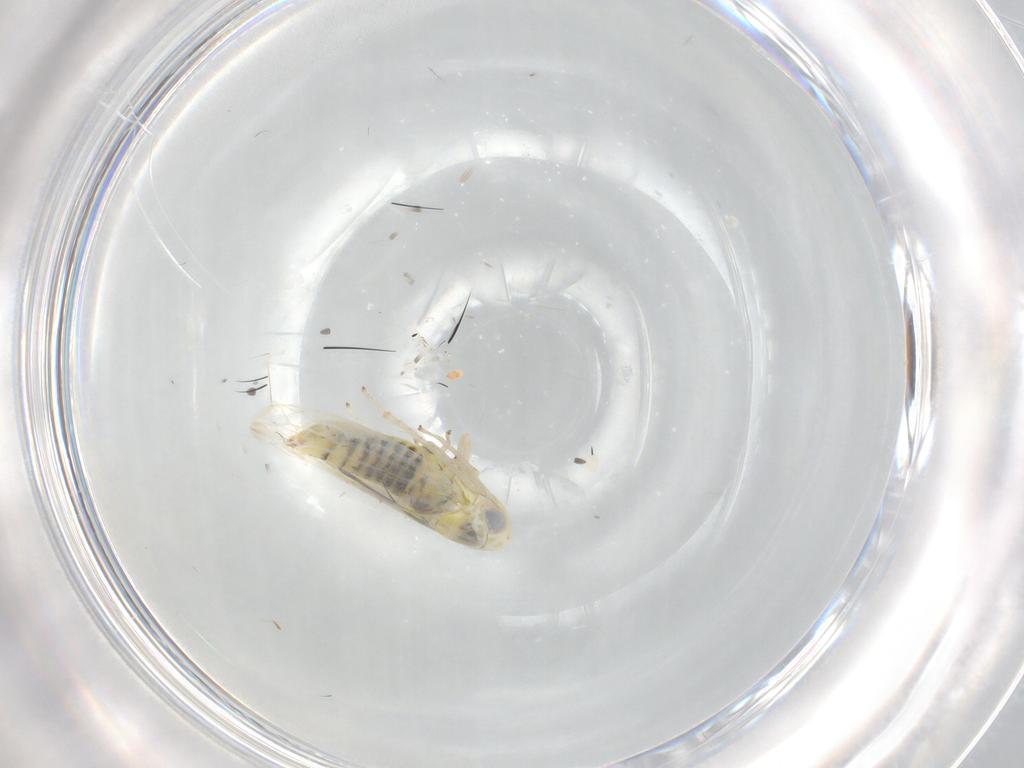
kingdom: Animalia
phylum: Arthropoda
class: Insecta
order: Hemiptera
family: Cicadellidae
